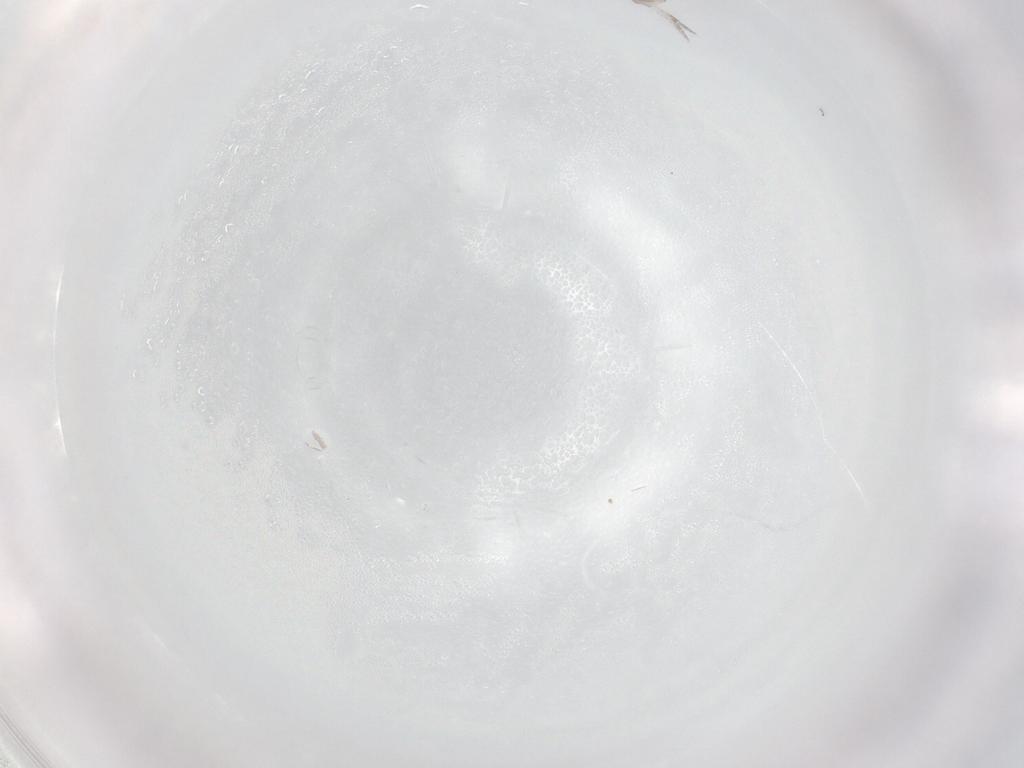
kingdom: Animalia
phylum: Arthropoda
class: Collembola
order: Entomobryomorpha
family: Entomobryidae
